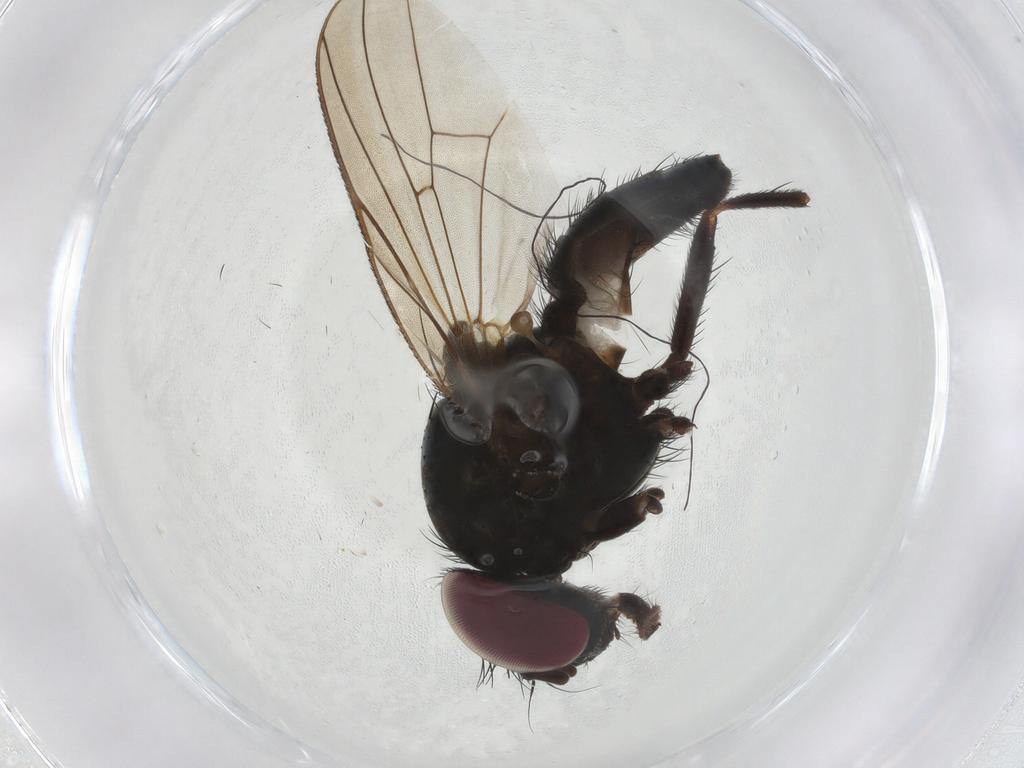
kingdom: Animalia
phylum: Arthropoda
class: Insecta
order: Diptera
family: Fanniidae
